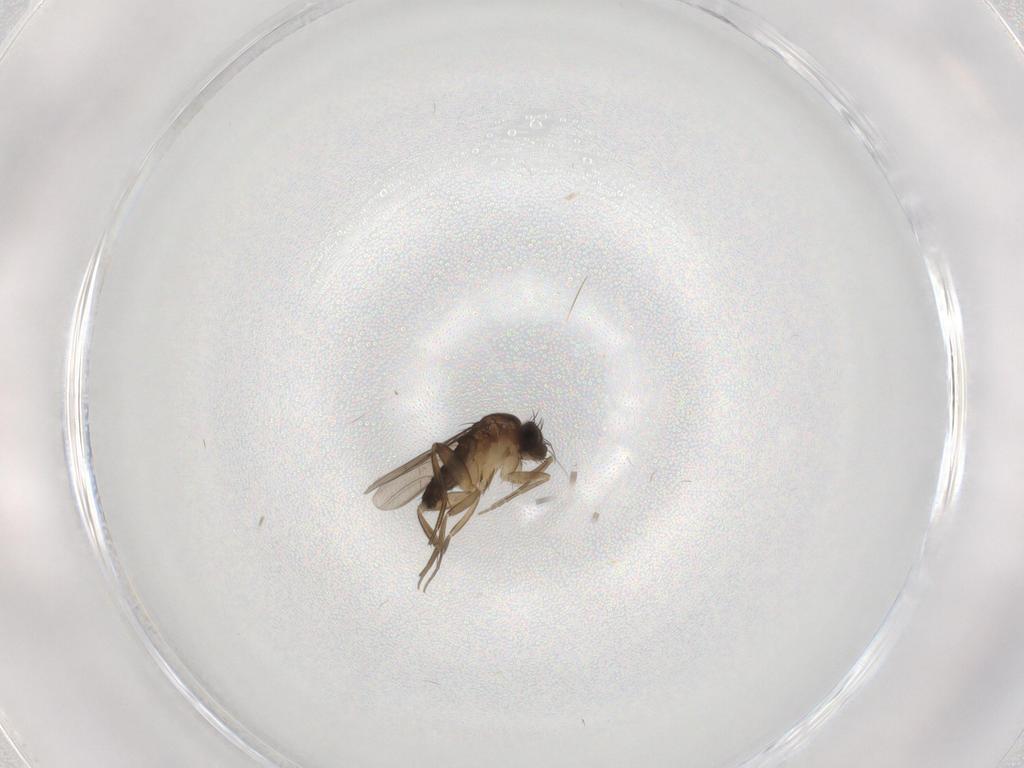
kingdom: Animalia
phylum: Arthropoda
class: Insecta
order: Diptera
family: Phoridae
